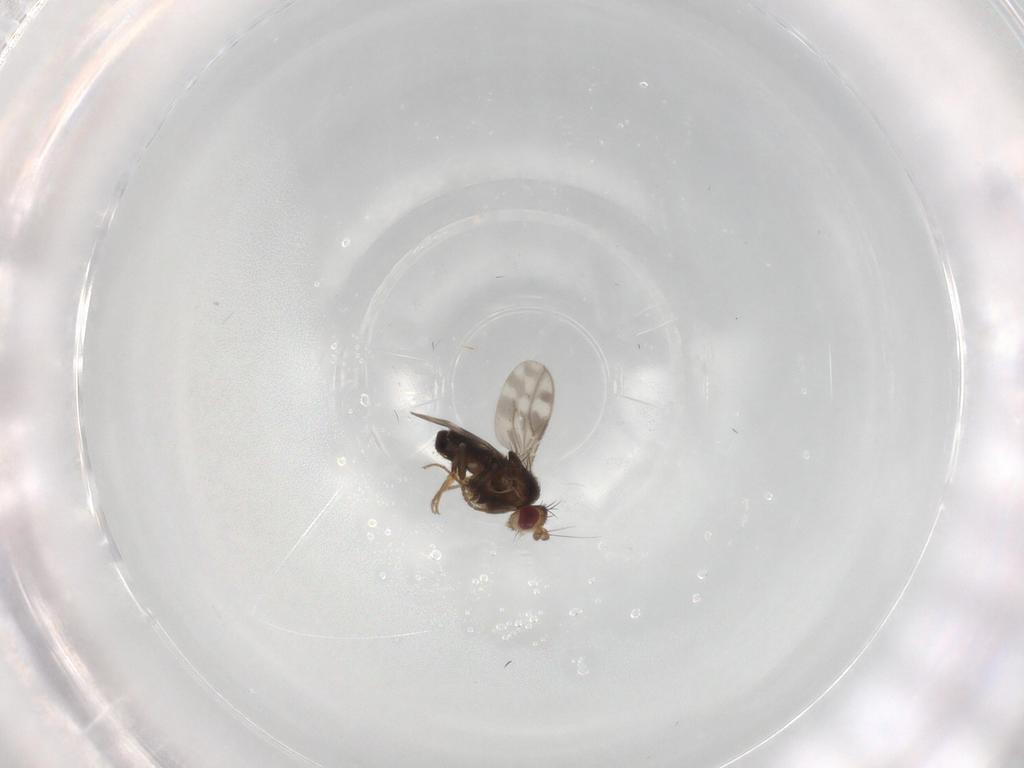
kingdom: Animalia
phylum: Arthropoda
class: Insecta
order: Diptera
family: Sphaeroceridae
